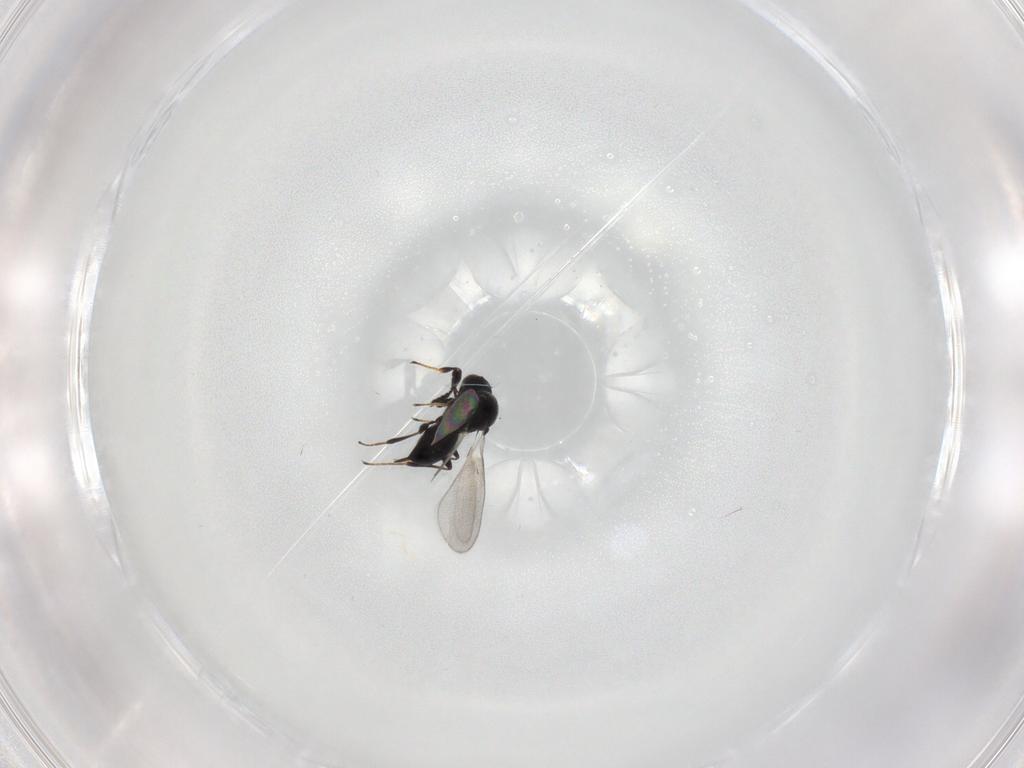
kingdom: Animalia
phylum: Arthropoda
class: Insecta
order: Hymenoptera
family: Platygastridae
